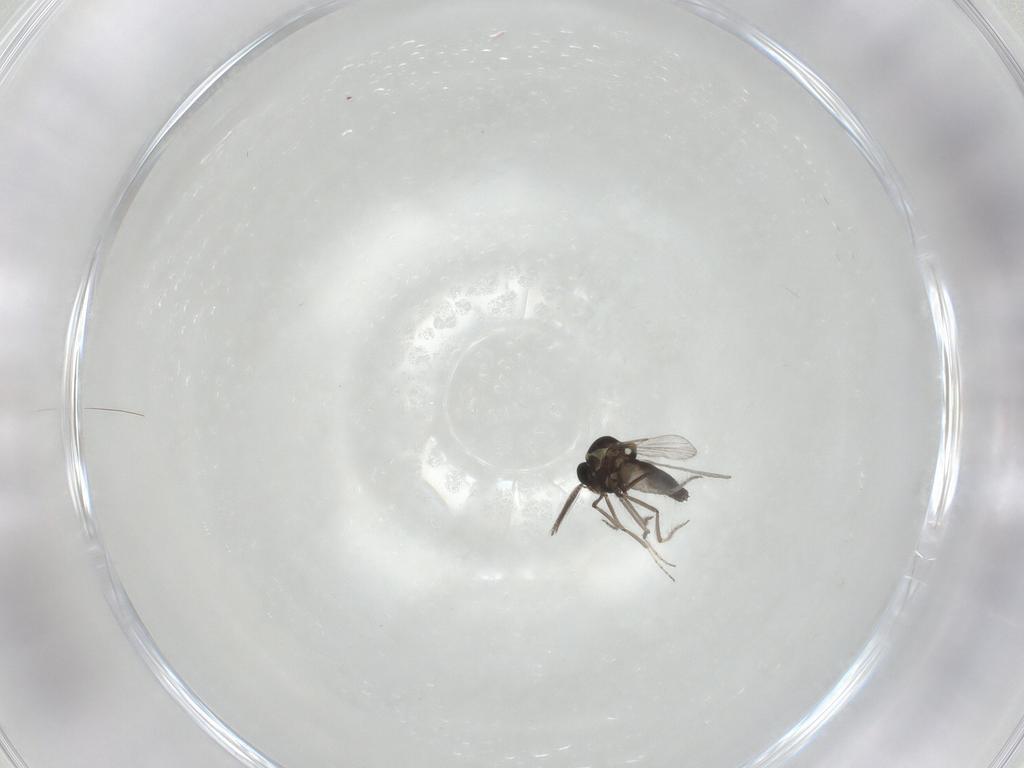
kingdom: Animalia
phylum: Arthropoda
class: Insecta
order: Diptera
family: Ceratopogonidae
